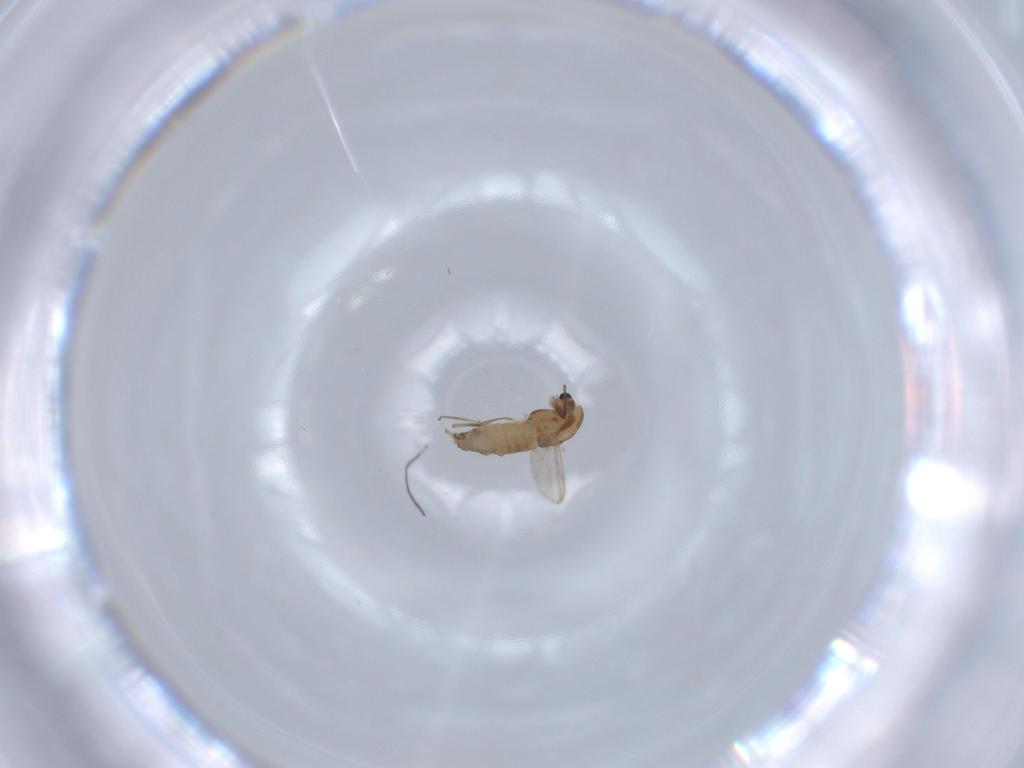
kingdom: Animalia
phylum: Arthropoda
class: Insecta
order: Diptera
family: Chironomidae
